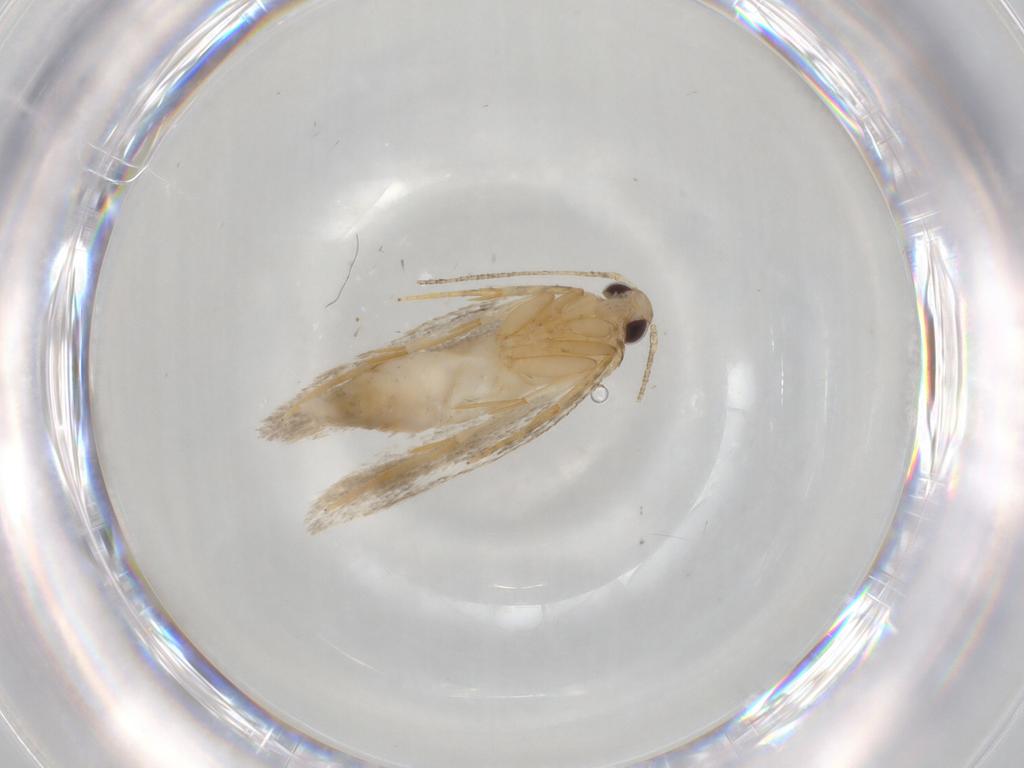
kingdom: Animalia
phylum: Arthropoda
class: Insecta
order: Lepidoptera
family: Autostichidae
